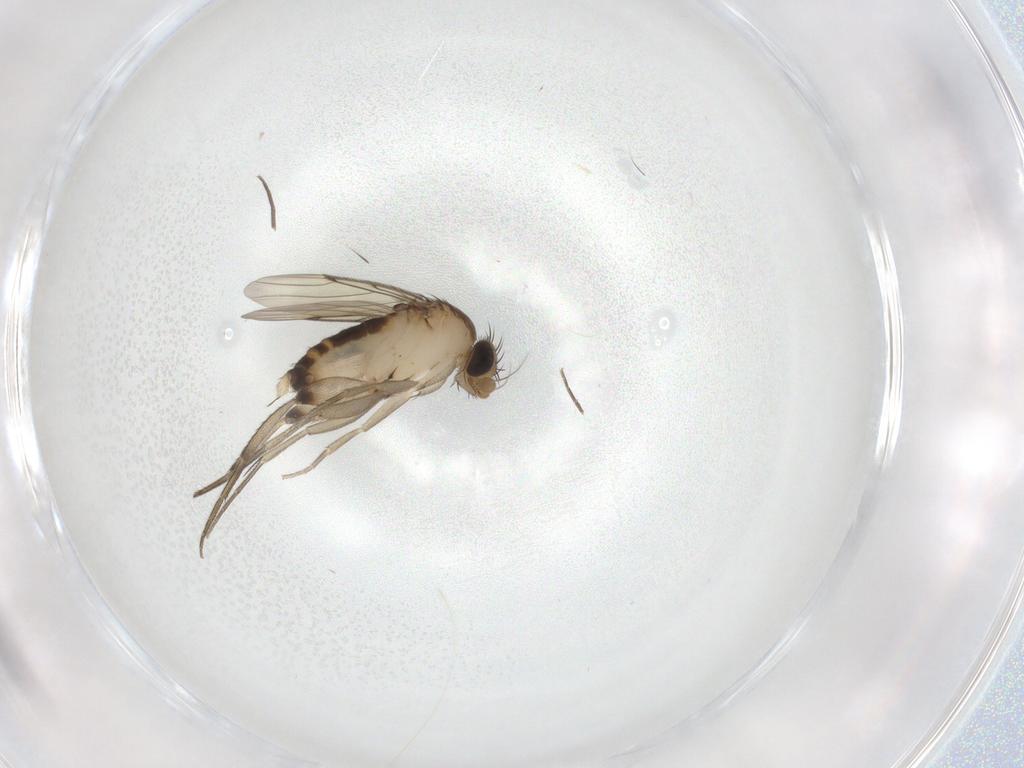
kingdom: Animalia
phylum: Arthropoda
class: Insecta
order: Diptera
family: Phoridae
